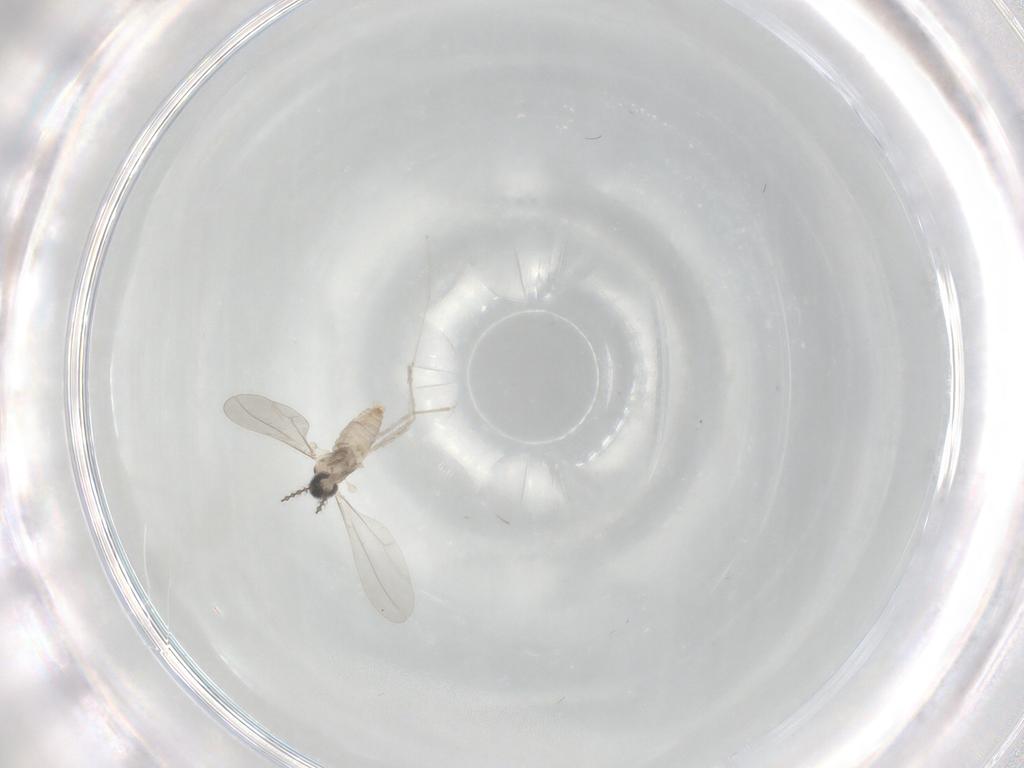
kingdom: Animalia
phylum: Arthropoda
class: Insecta
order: Diptera
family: Cecidomyiidae
